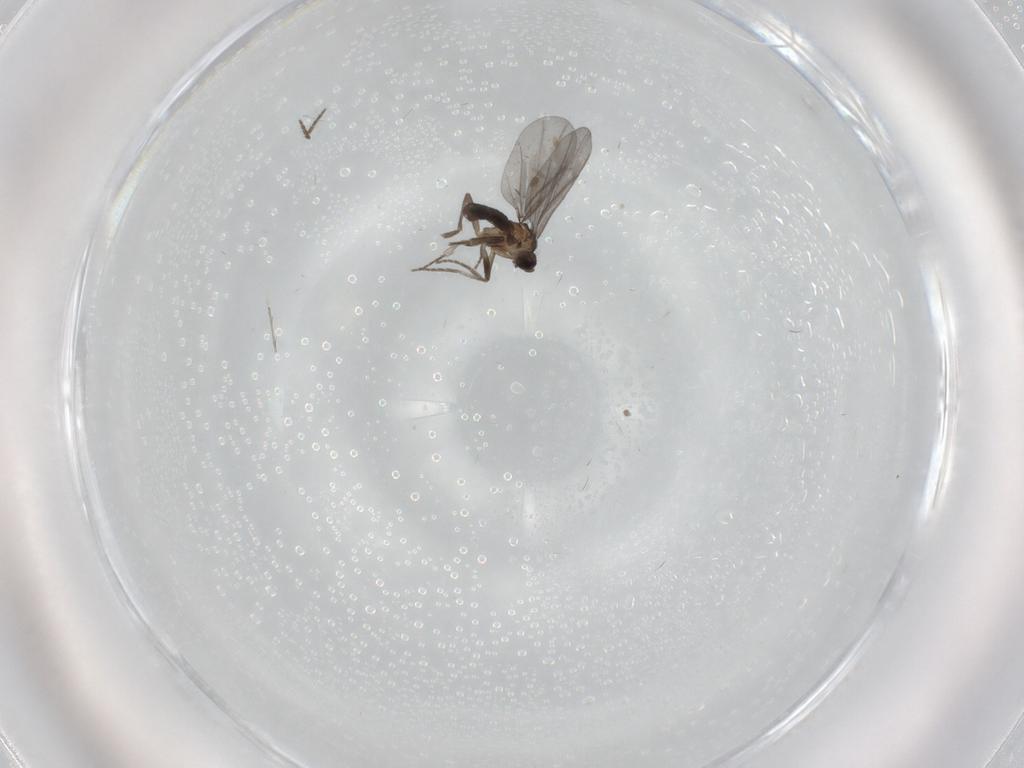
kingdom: Animalia
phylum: Arthropoda
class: Insecta
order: Diptera
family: Phoridae
